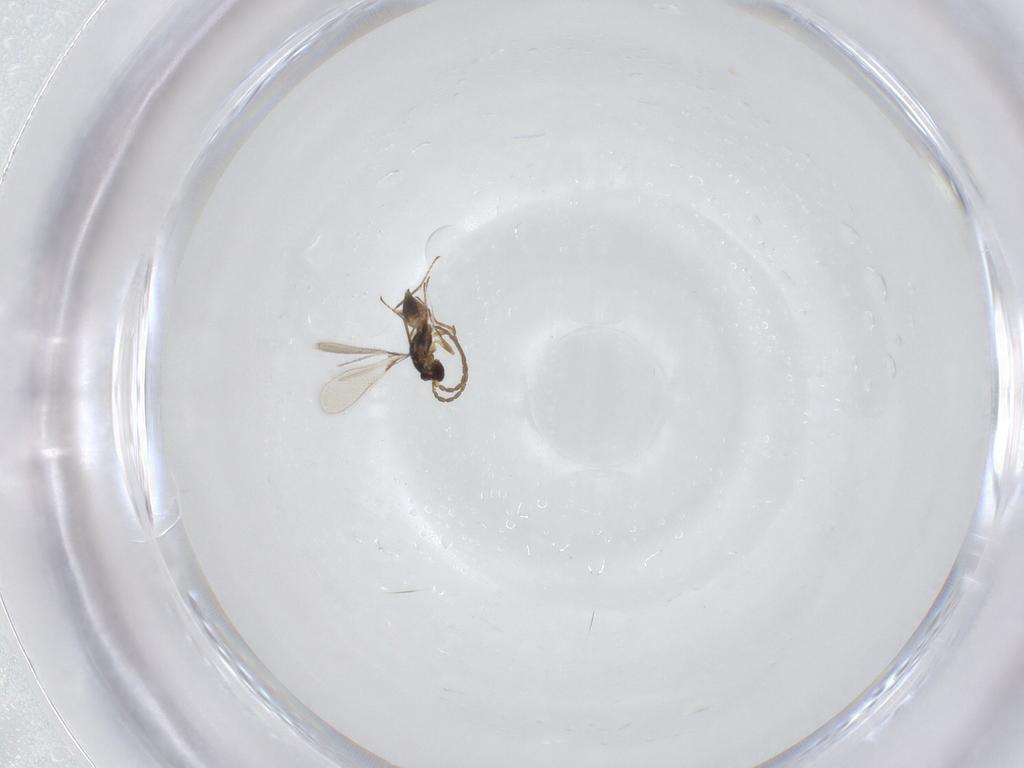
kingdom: Animalia
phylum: Arthropoda
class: Insecta
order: Hymenoptera
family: Mymaridae
